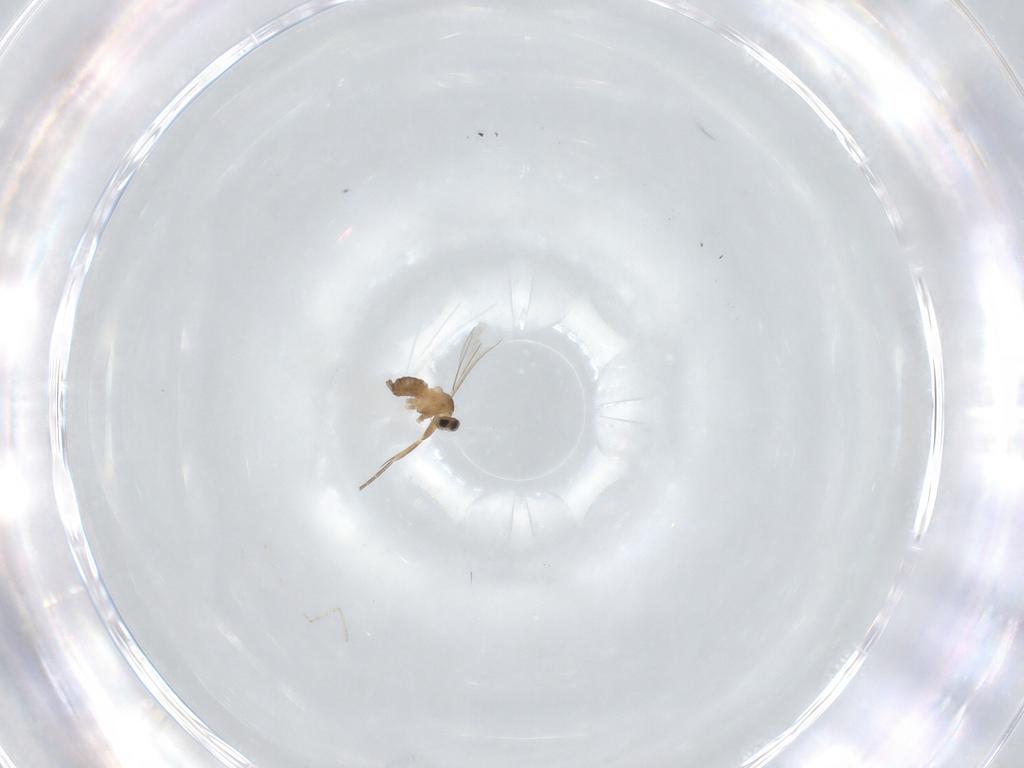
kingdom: Animalia
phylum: Arthropoda
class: Insecta
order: Diptera
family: Cecidomyiidae
